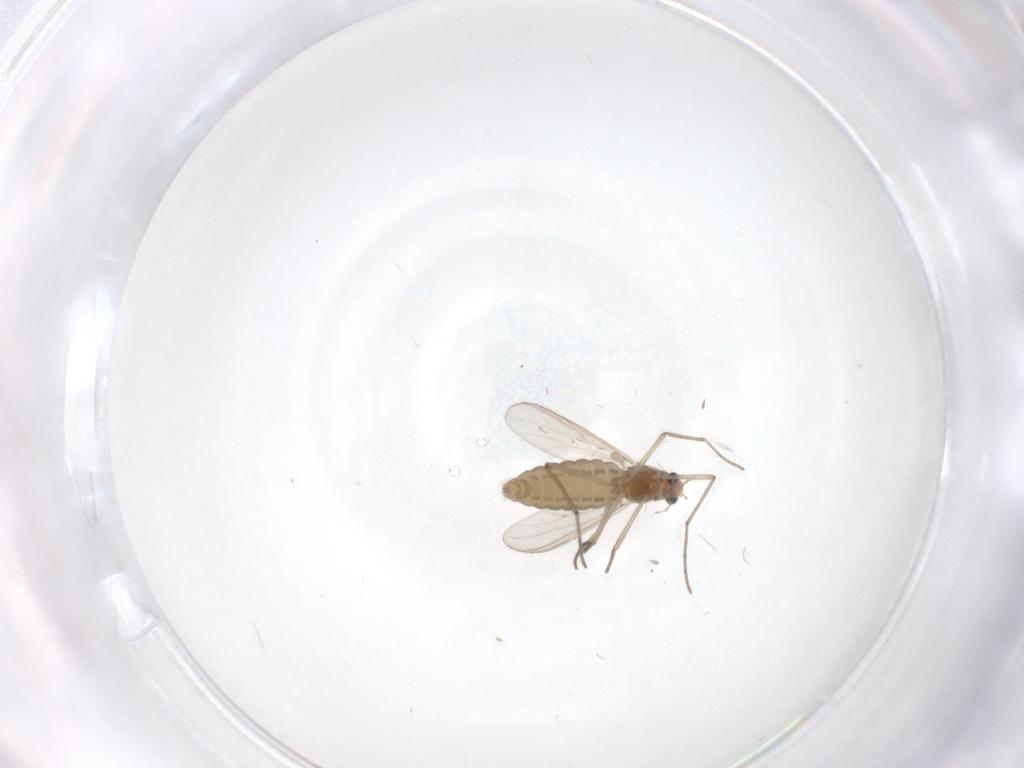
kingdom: Animalia
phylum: Arthropoda
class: Insecta
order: Diptera
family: Chironomidae
